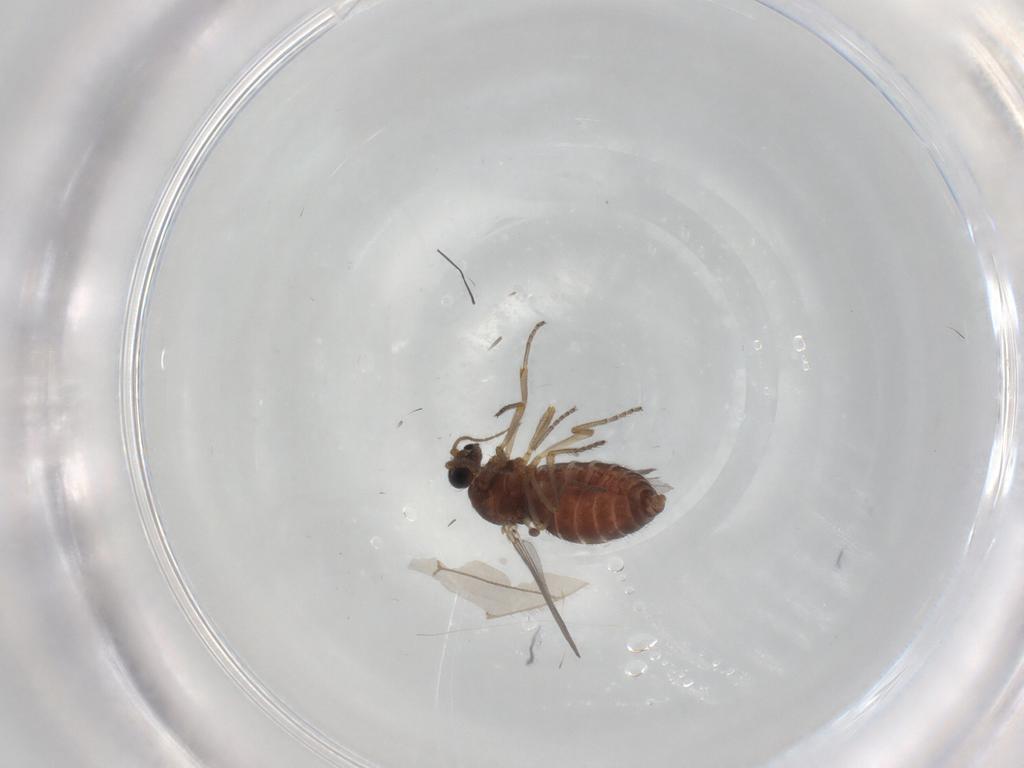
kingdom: Animalia
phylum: Arthropoda
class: Insecta
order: Diptera
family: Ceratopogonidae
